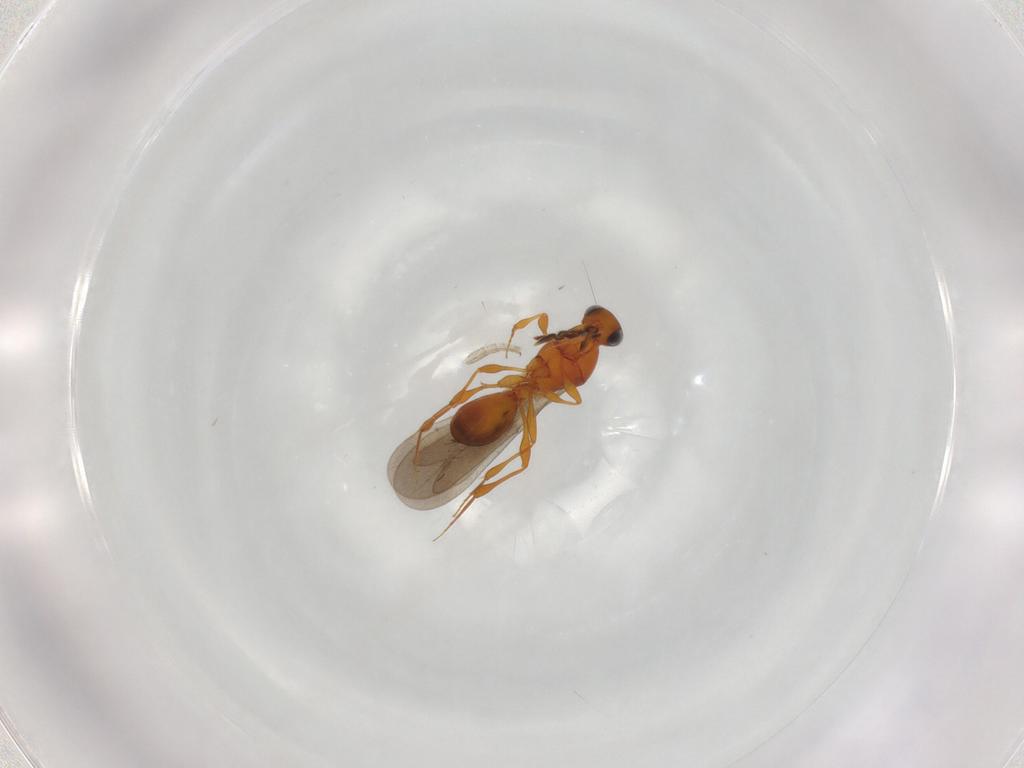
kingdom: Animalia
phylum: Arthropoda
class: Insecta
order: Hymenoptera
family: Platygastridae
